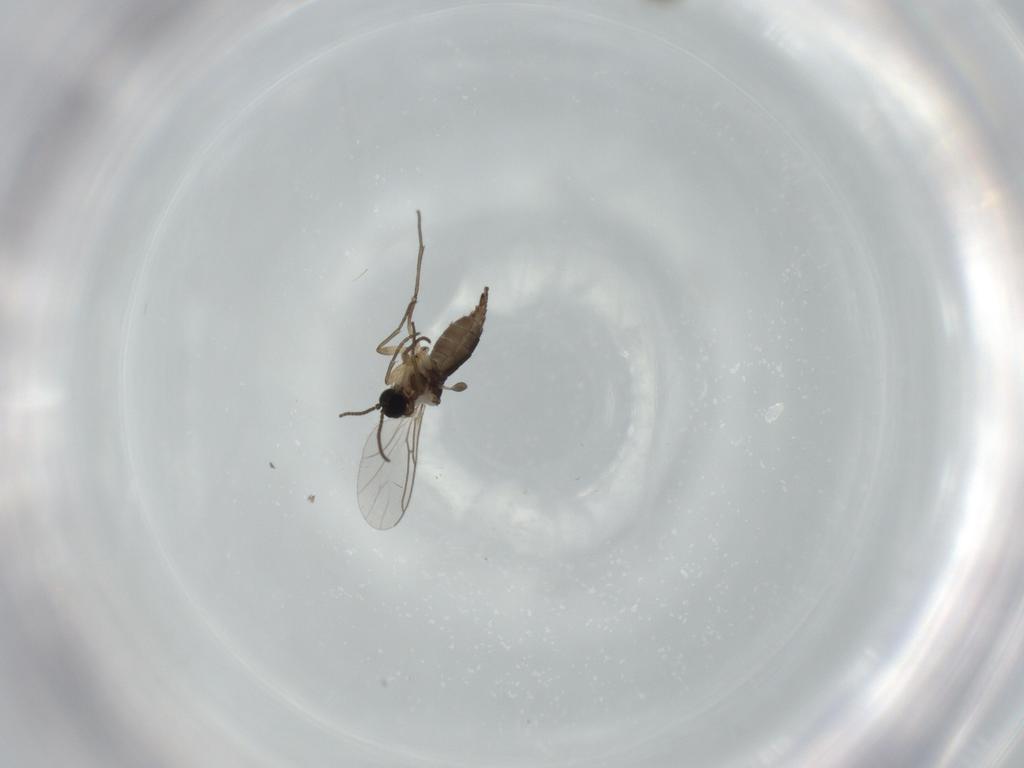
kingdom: Animalia
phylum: Arthropoda
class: Insecta
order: Diptera
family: Sciaridae
